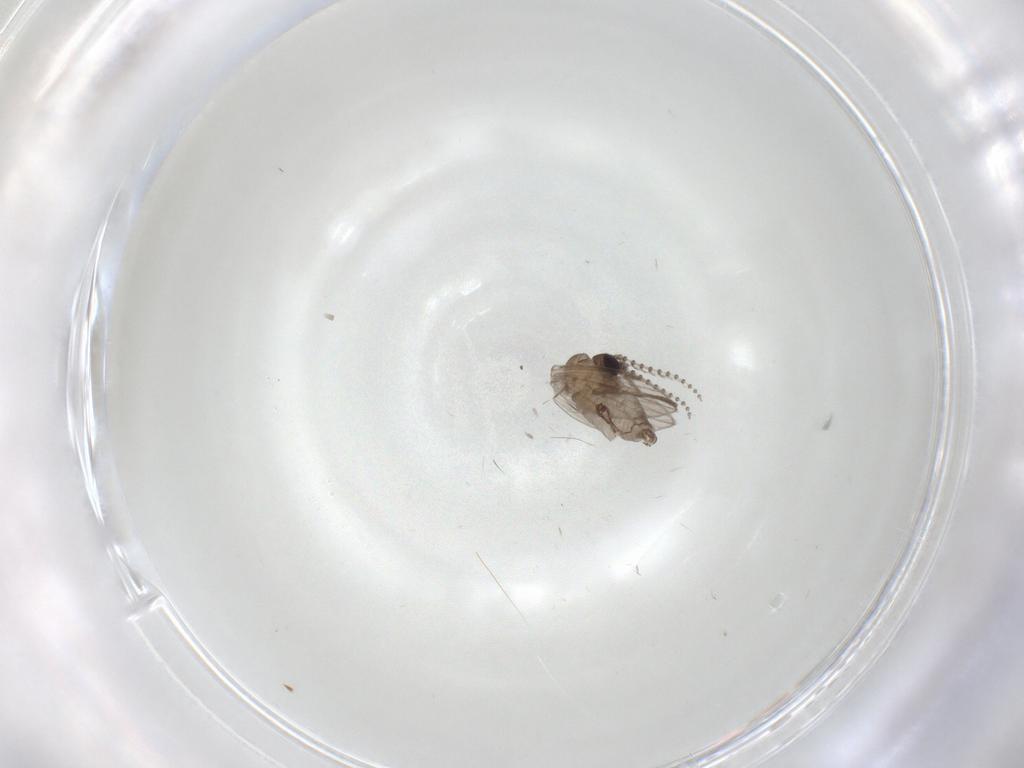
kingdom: Animalia
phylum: Arthropoda
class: Insecta
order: Diptera
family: Psychodidae
